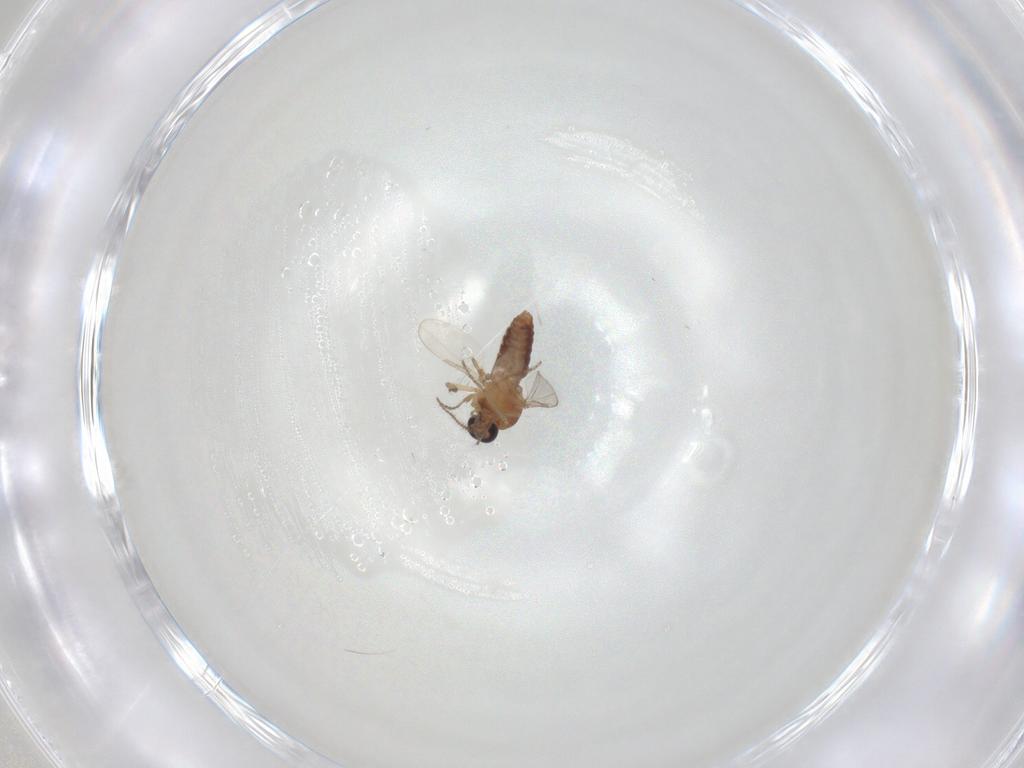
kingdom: Animalia
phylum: Arthropoda
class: Insecta
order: Diptera
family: Ceratopogonidae
